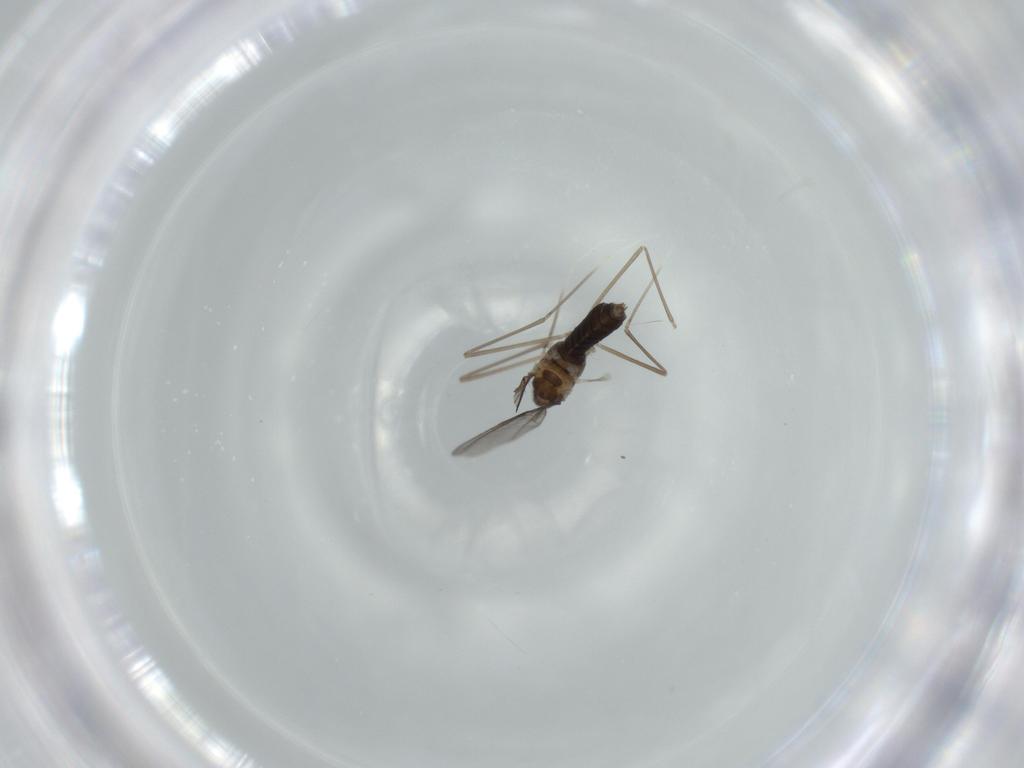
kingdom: Animalia
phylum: Arthropoda
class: Insecta
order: Diptera
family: Cecidomyiidae
